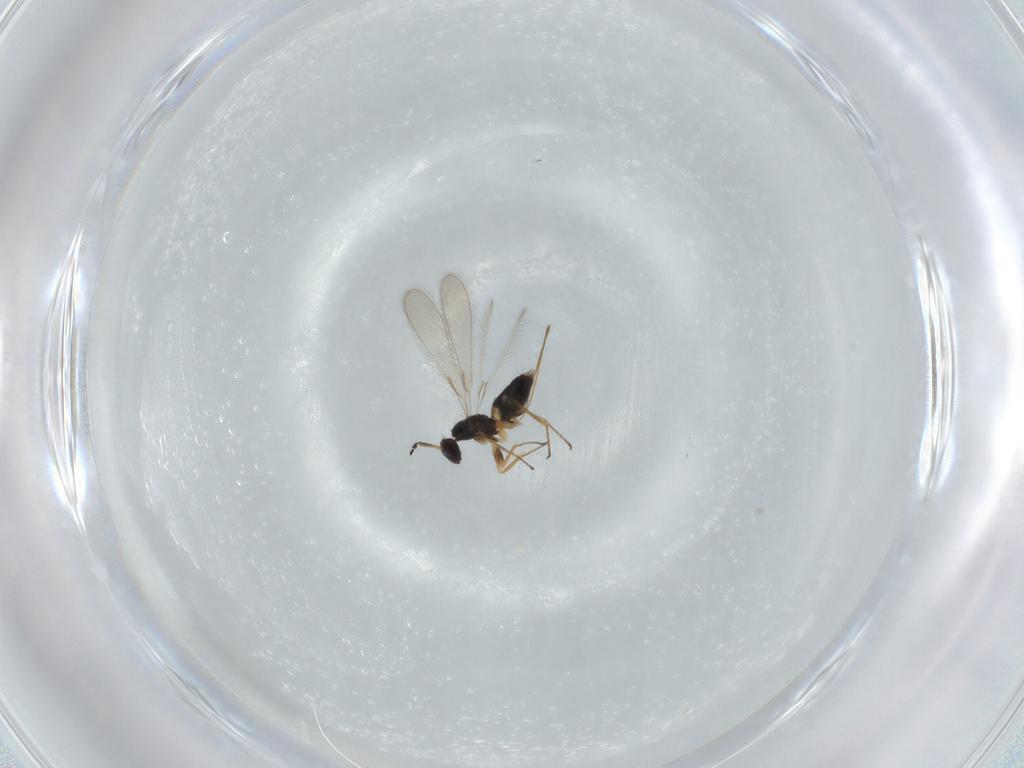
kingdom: Animalia
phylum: Arthropoda
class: Insecta
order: Hymenoptera
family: Mymaridae
